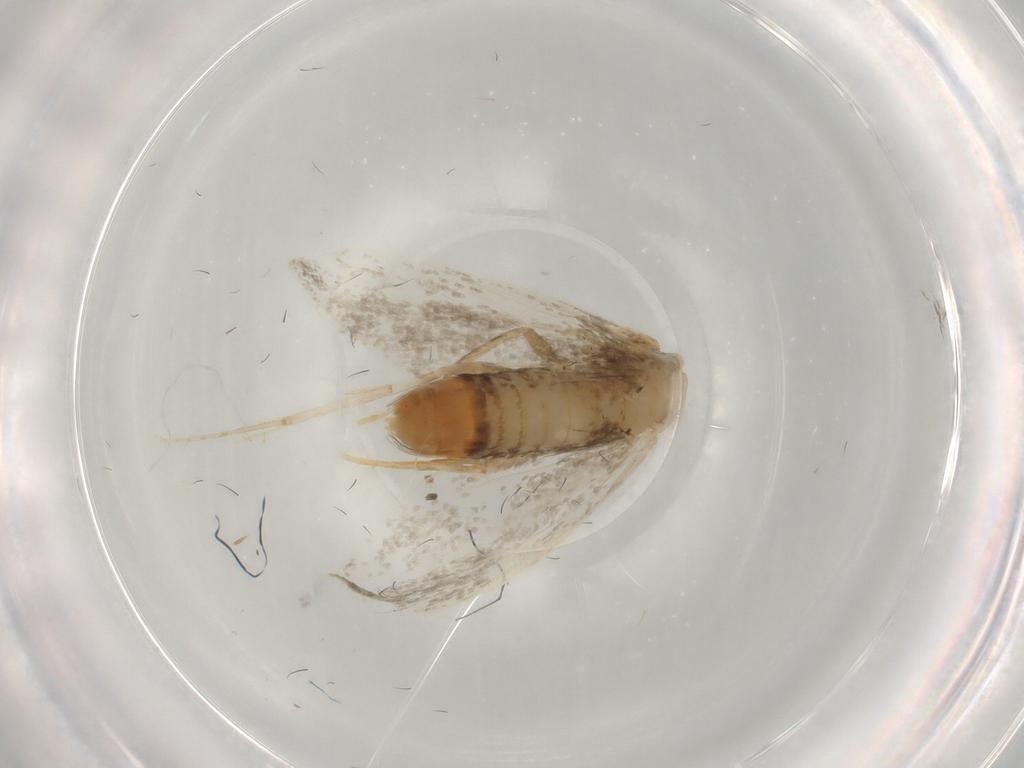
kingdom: Animalia
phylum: Arthropoda
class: Insecta
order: Lepidoptera
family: Psychidae
